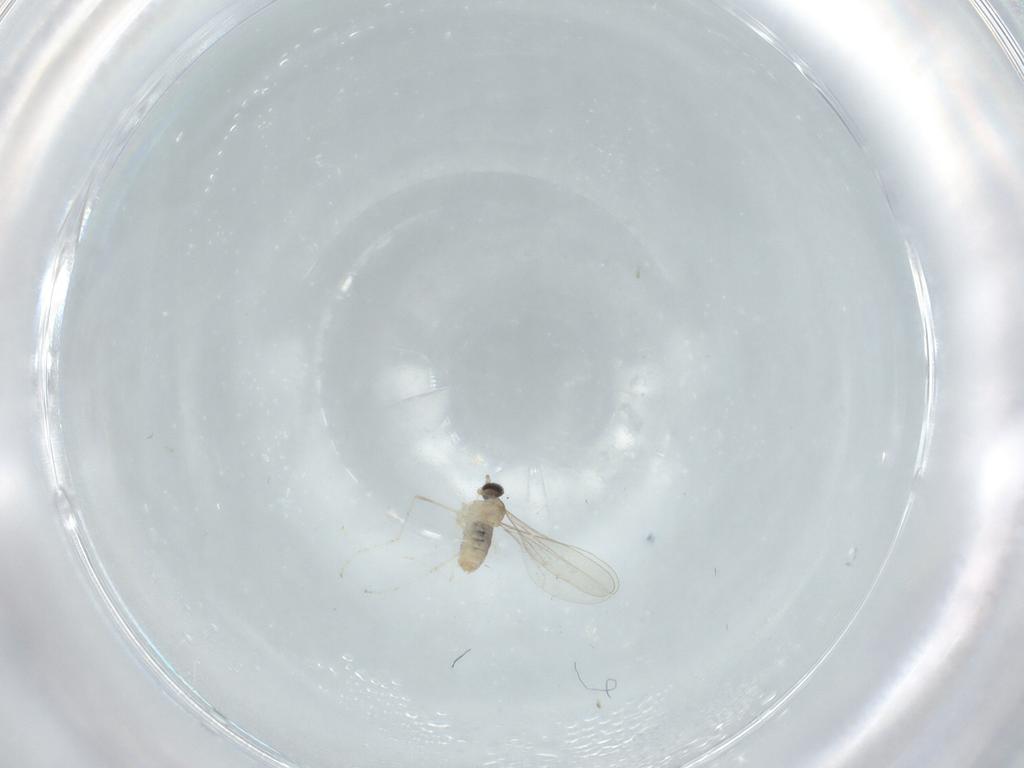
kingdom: Animalia
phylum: Arthropoda
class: Insecta
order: Diptera
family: Cecidomyiidae
